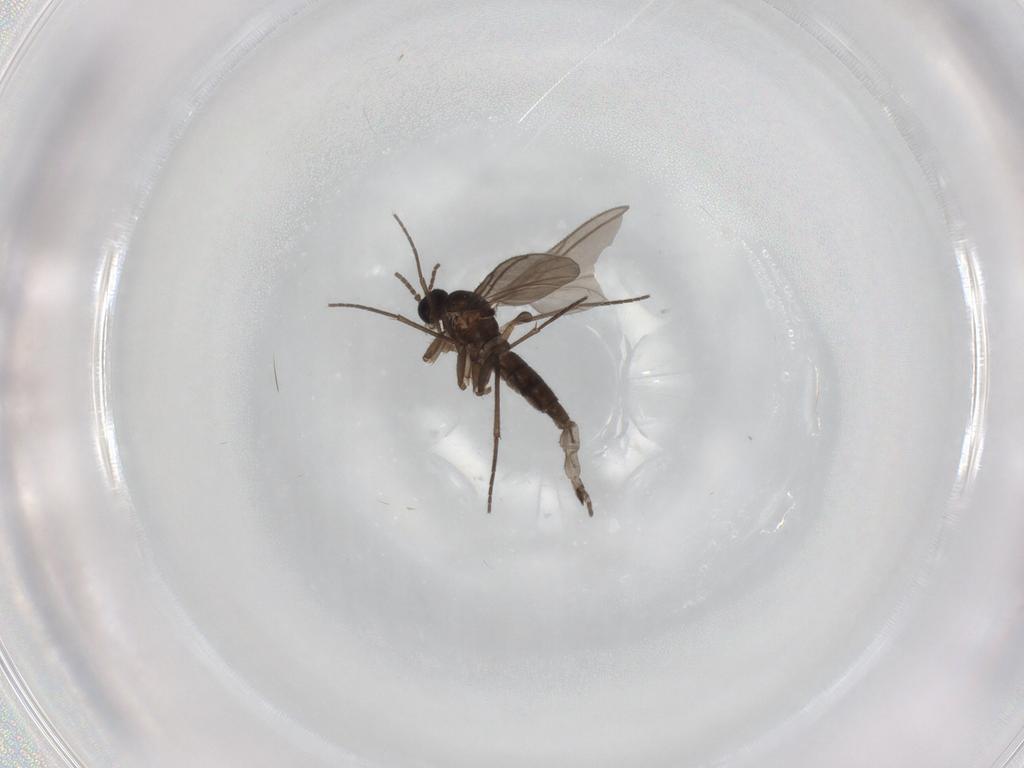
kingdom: Animalia
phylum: Arthropoda
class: Insecta
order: Diptera
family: Sciaridae
